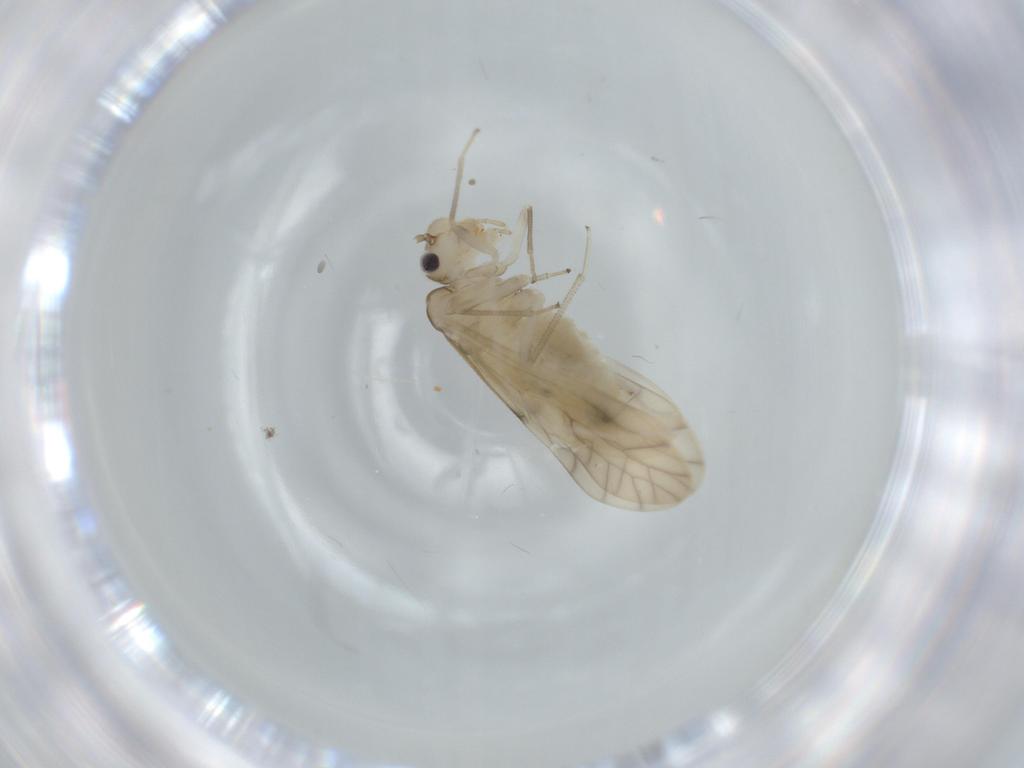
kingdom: Animalia
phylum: Arthropoda
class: Insecta
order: Psocodea
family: Caeciliusidae
